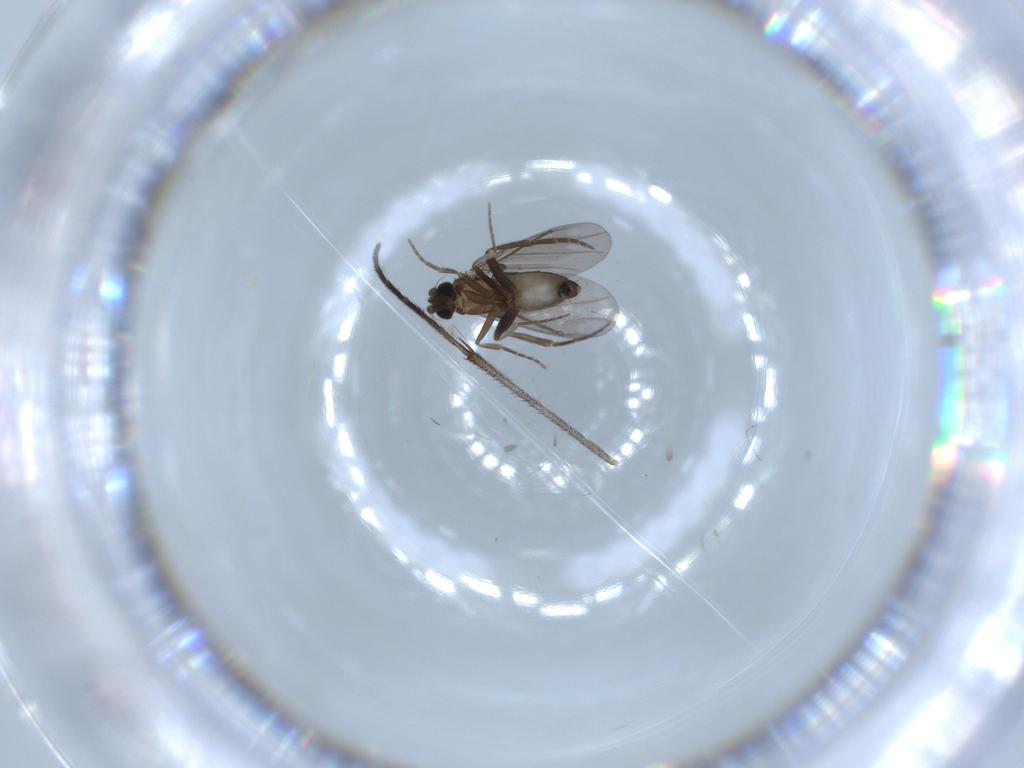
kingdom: Animalia
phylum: Arthropoda
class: Insecta
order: Diptera
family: Phoridae
